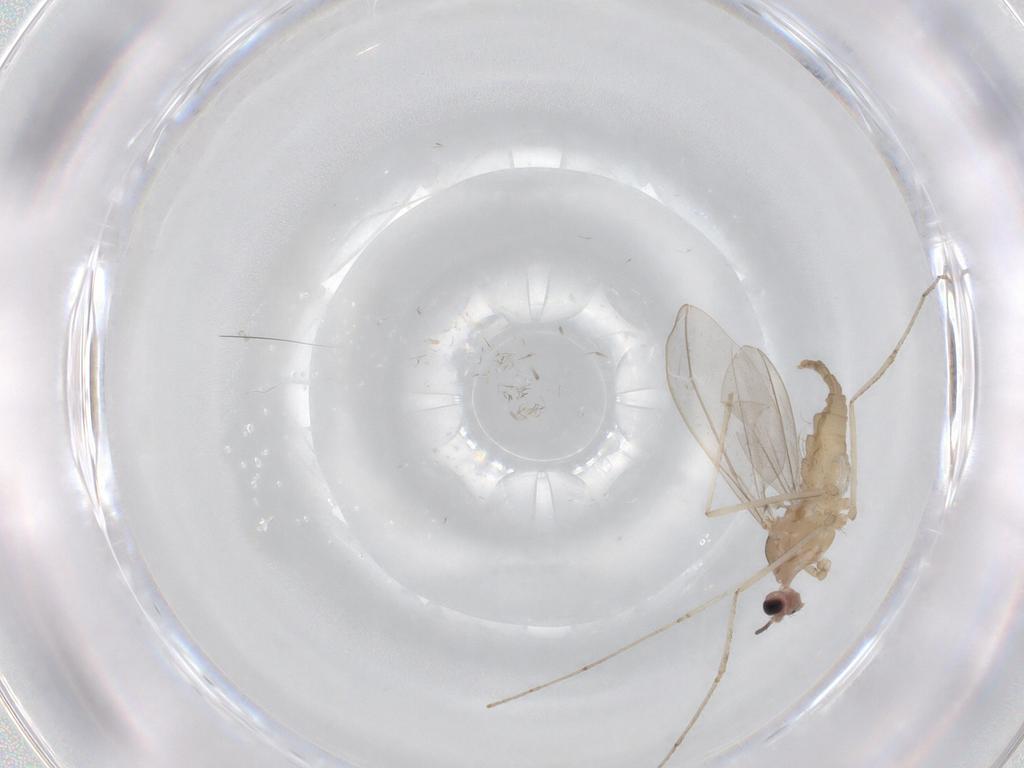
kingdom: Animalia
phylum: Arthropoda
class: Insecta
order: Diptera
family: Cecidomyiidae
